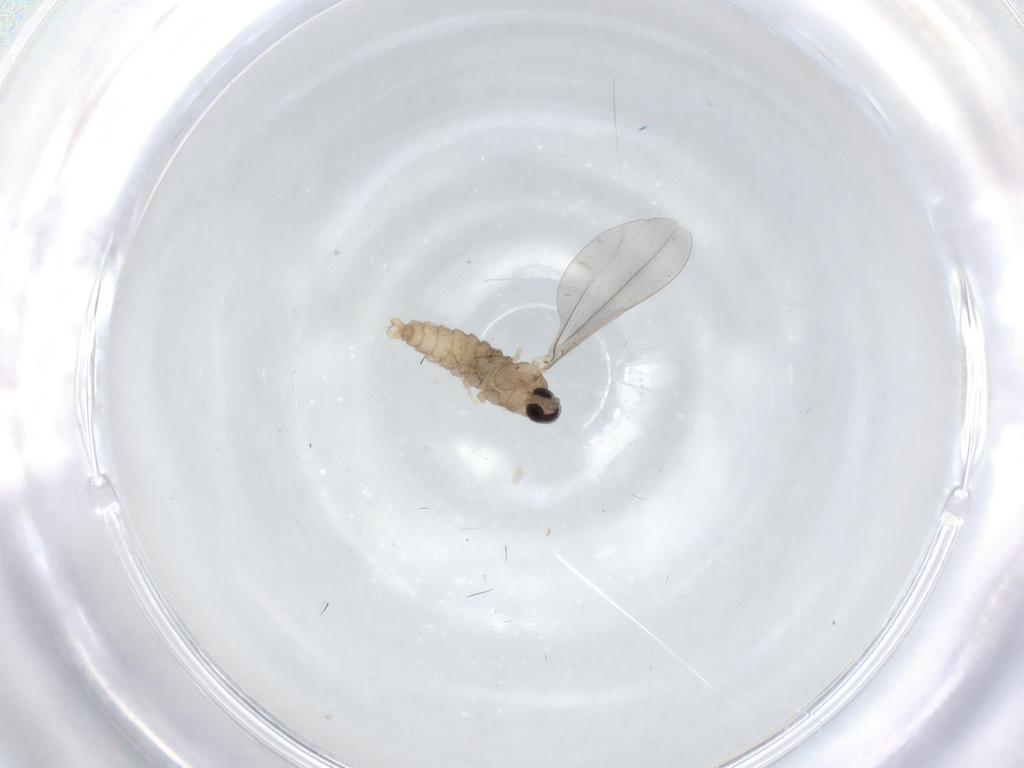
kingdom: Animalia
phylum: Arthropoda
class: Insecta
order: Diptera
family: Cecidomyiidae
